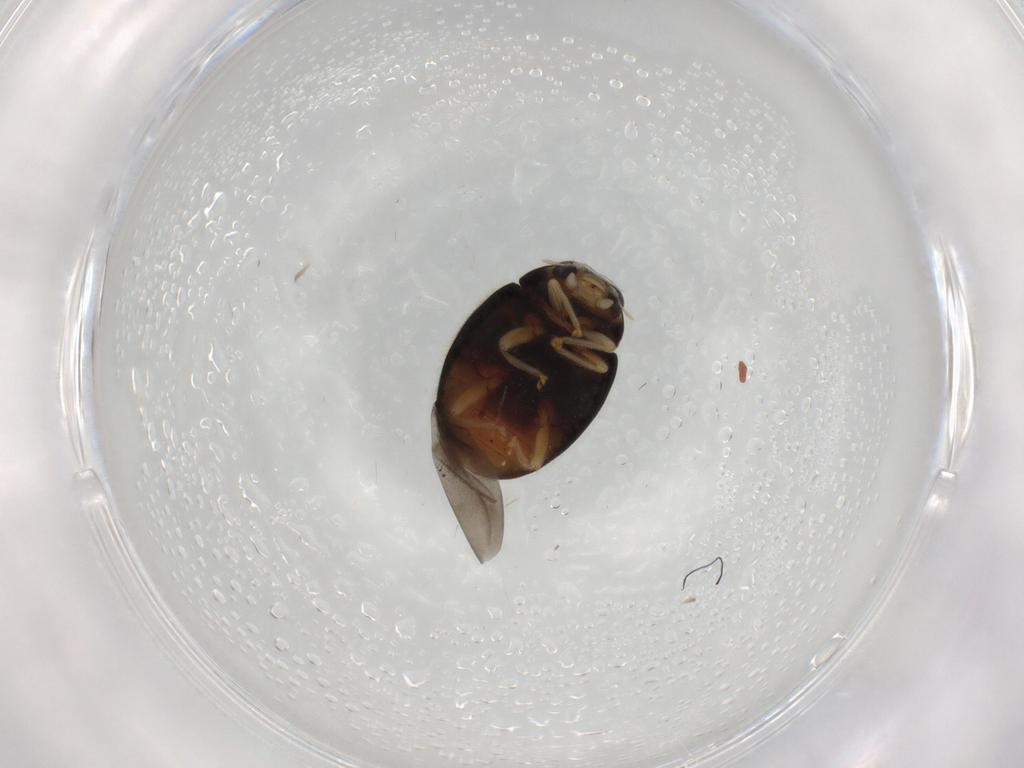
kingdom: Animalia
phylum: Arthropoda
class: Insecta
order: Coleoptera
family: Coccinellidae
